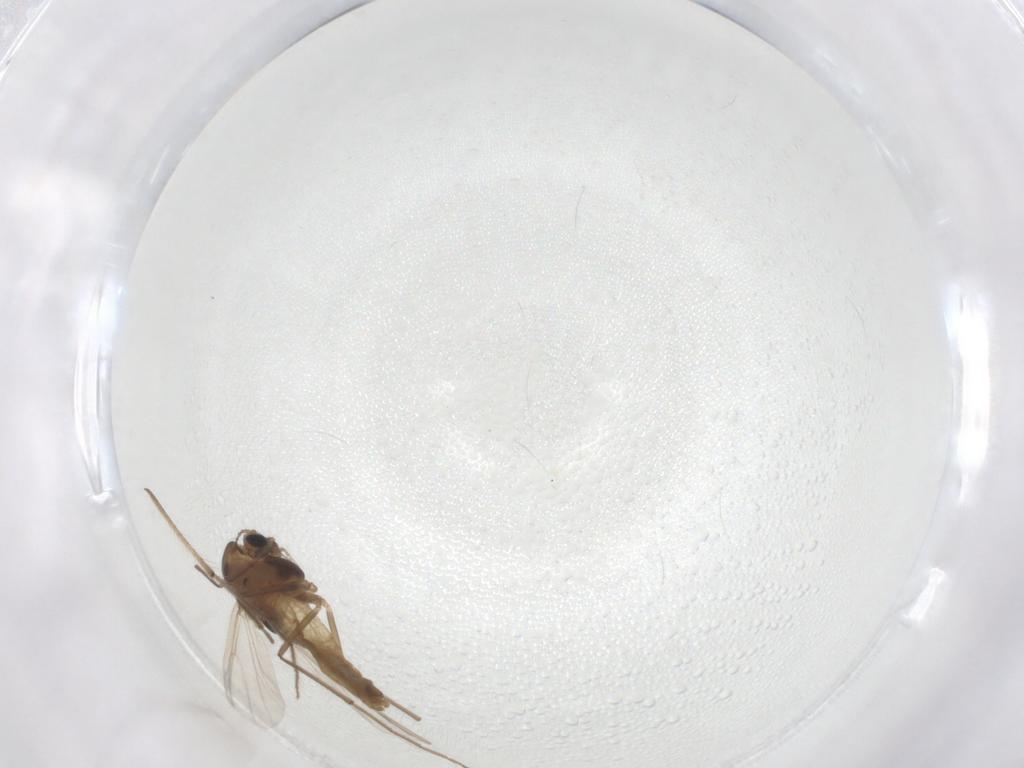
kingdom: Animalia
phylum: Arthropoda
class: Insecta
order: Diptera
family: Chironomidae
